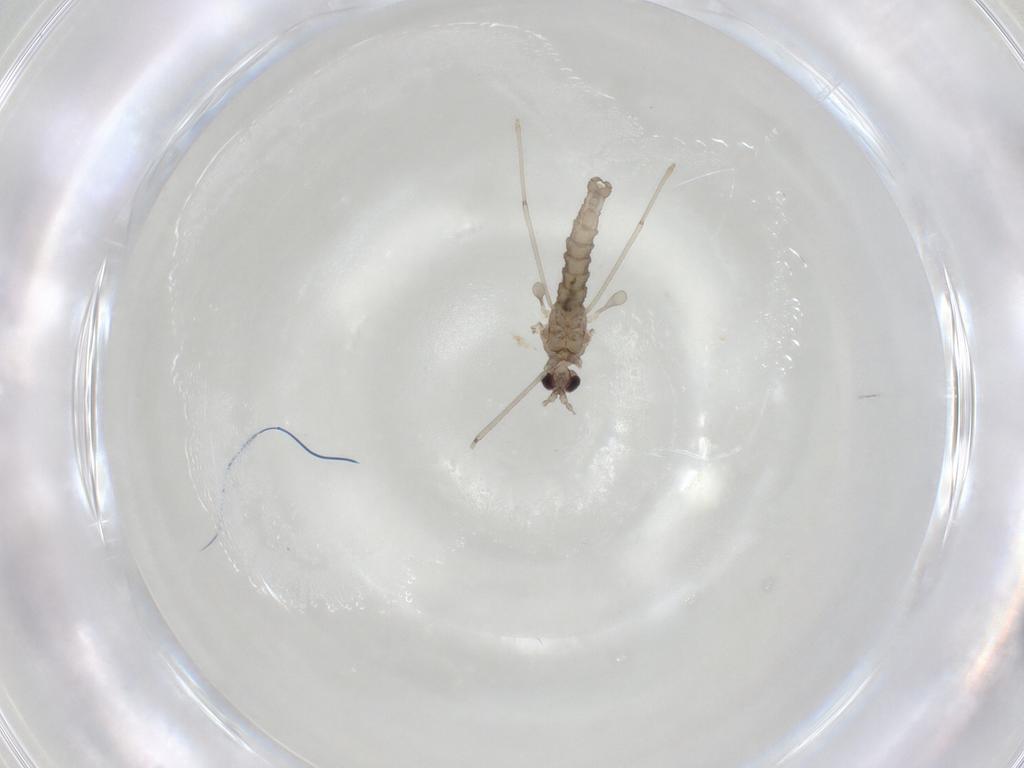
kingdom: Animalia
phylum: Arthropoda
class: Insecta
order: Diptera
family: Cecidomyiidae
